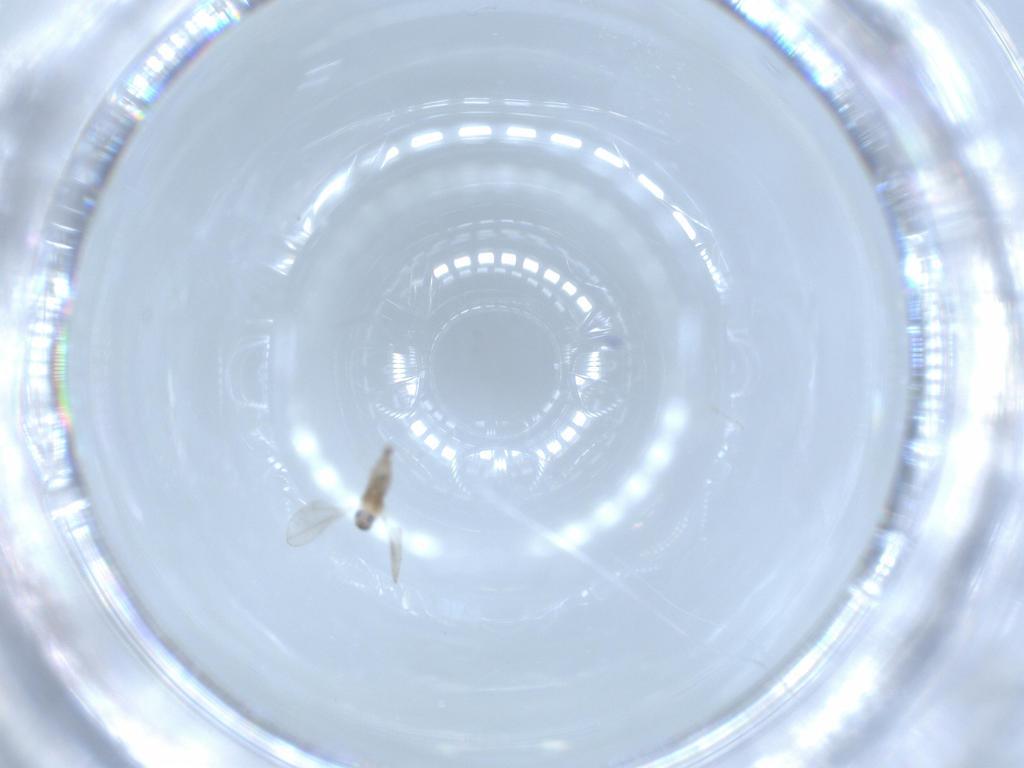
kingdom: Animalia
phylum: Arthropoda
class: Insecta
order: Diptera
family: Cecidomyiidae
